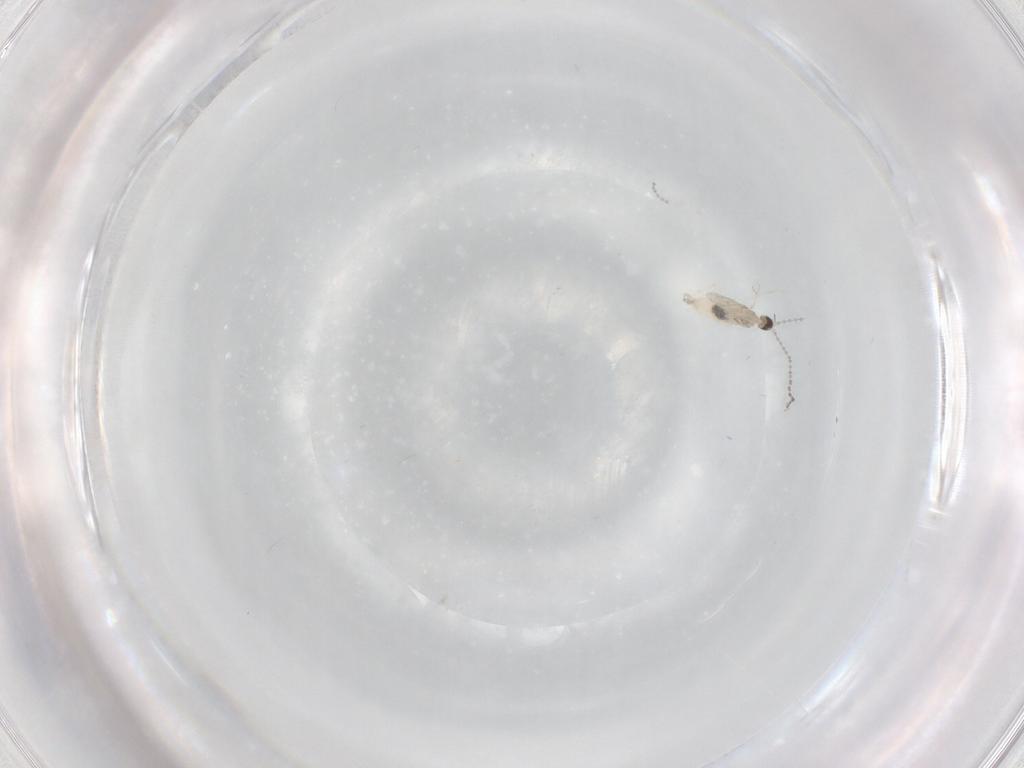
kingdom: Animalia
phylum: Arthropoda
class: Insecta
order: Diptera
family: Cecidomyiidae
